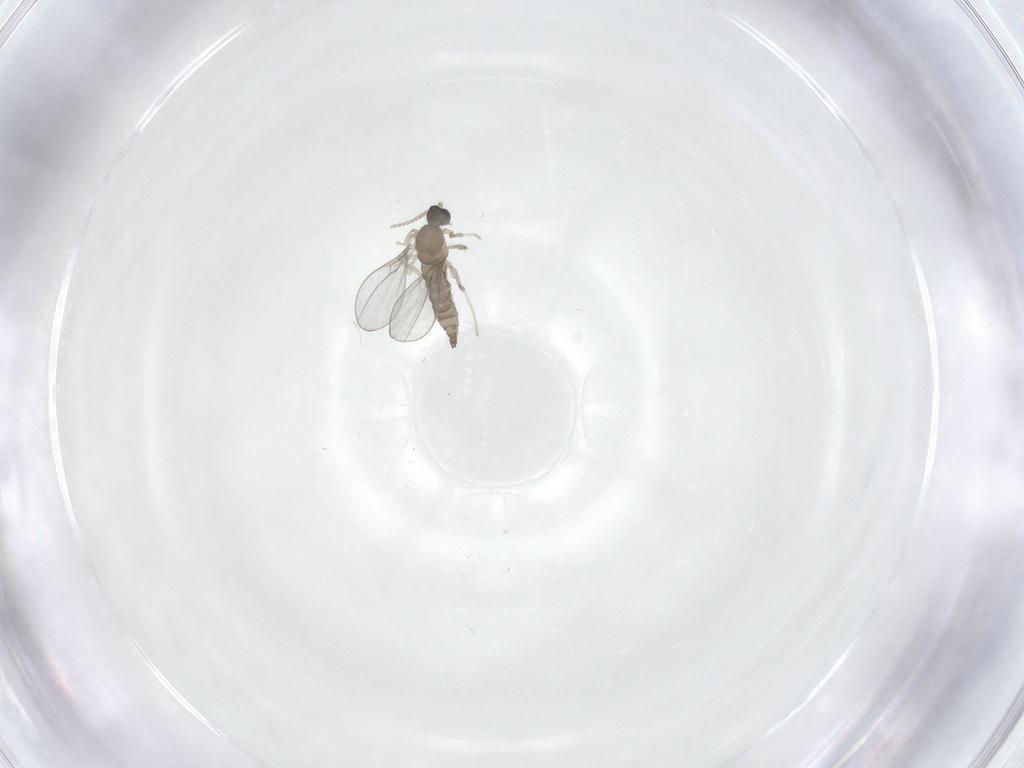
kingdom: Animalia
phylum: Arthropoda
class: Insecta
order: Diptera
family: Cecidomyiidae
